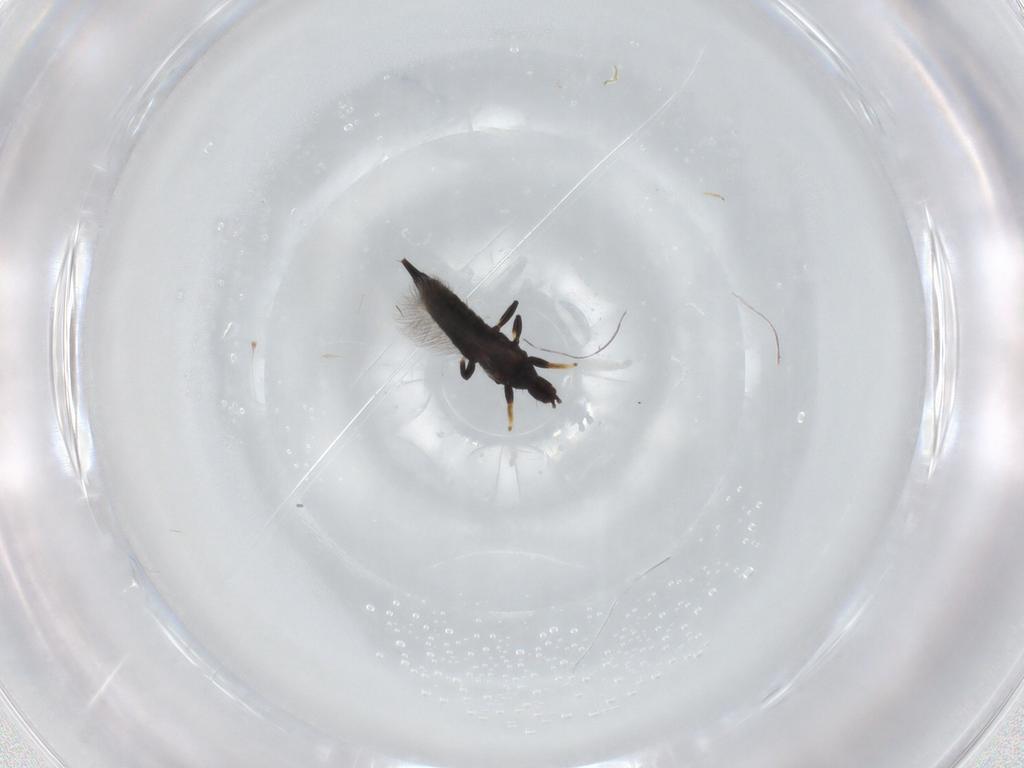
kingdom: Animalia
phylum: Arthropoda
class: Insecta
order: Thysanoptera
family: Phlaeothripidae
